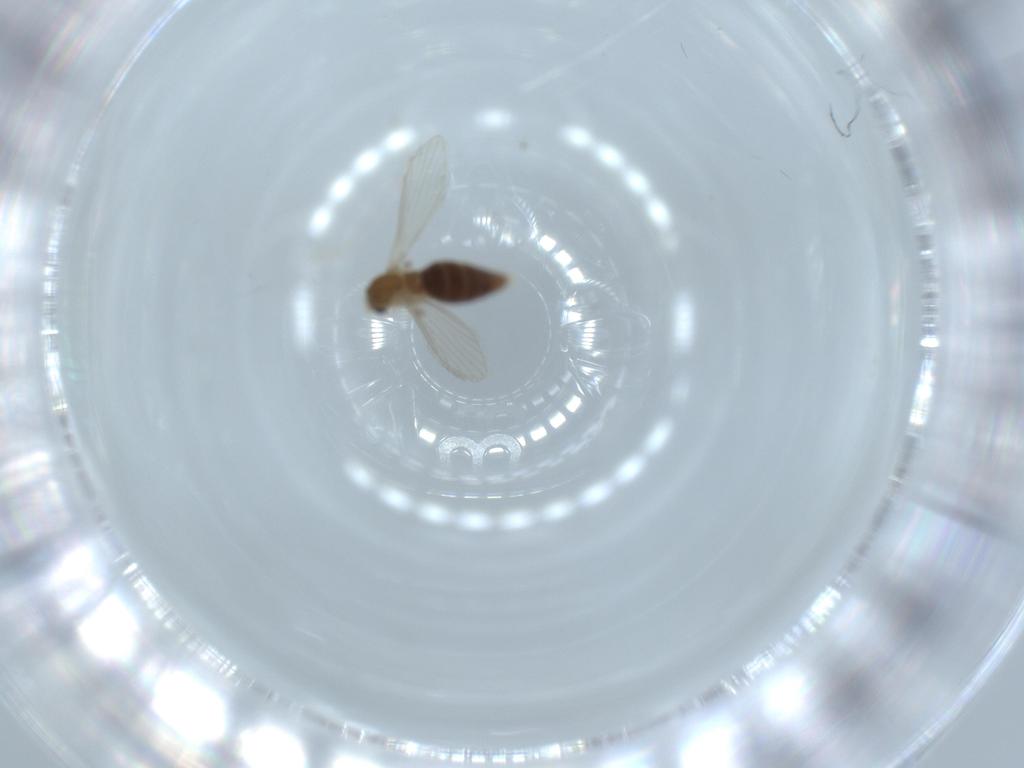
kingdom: Animalia
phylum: Arthropoda
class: Insecta
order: Diptera
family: Psychodidae
